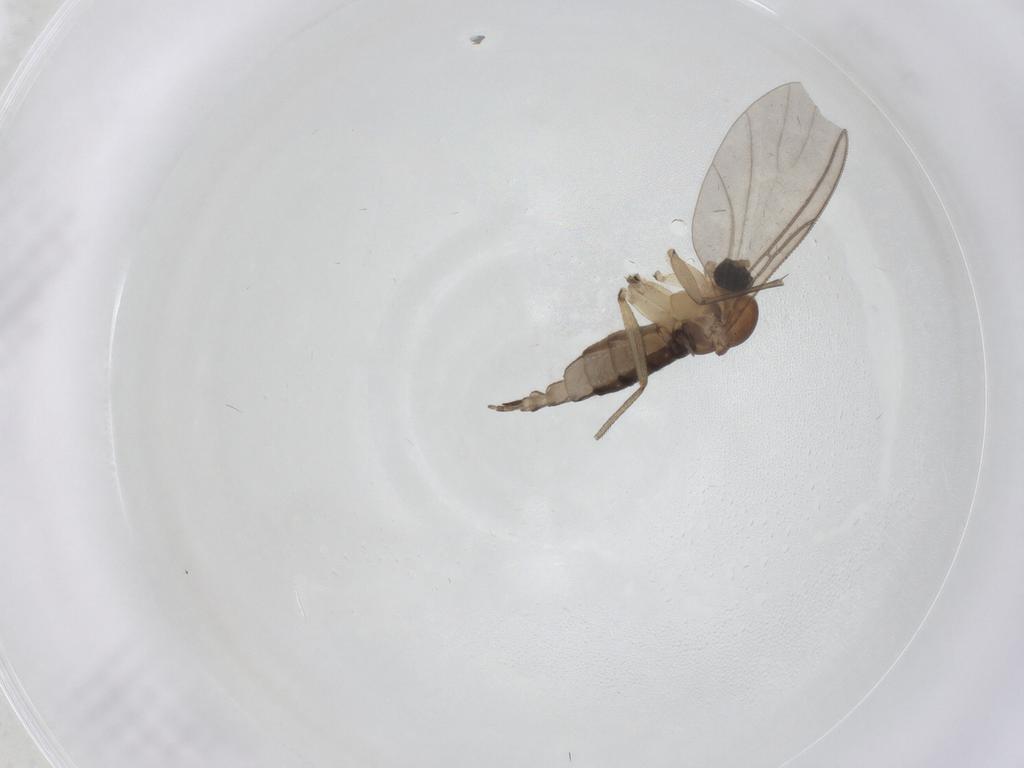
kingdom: Animalia
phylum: Arthropoda
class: Insecta
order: Diptera
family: Sciaridae
